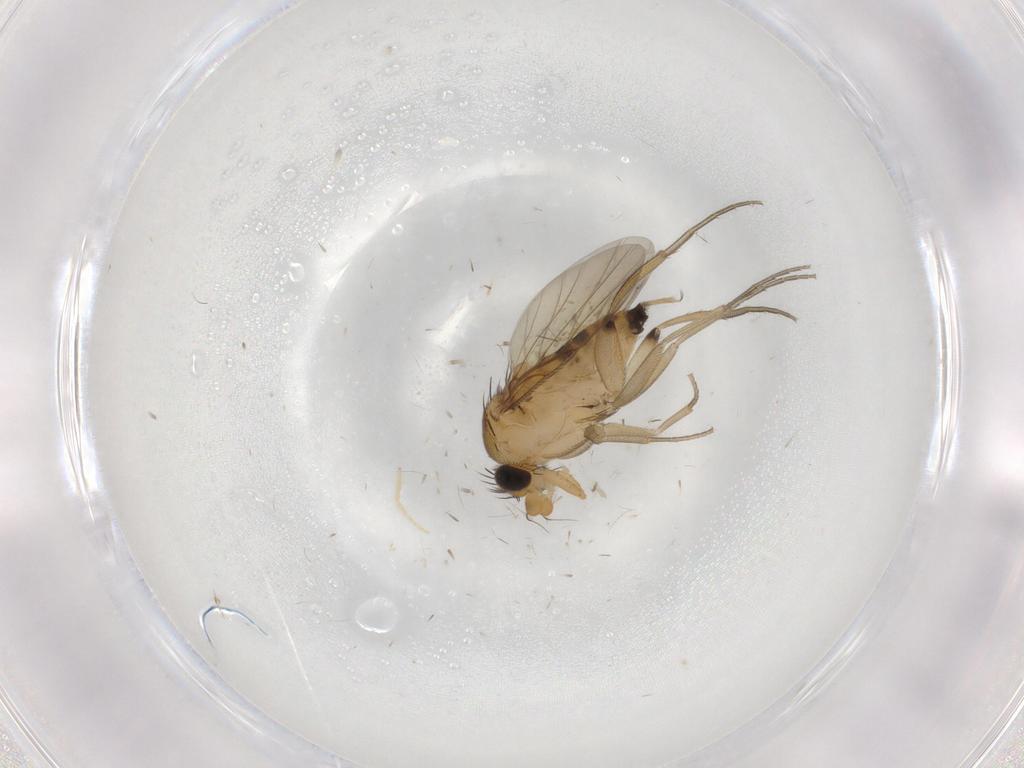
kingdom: Animalia
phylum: Arthropoda
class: Insecta
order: Diptera
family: Phoridae
